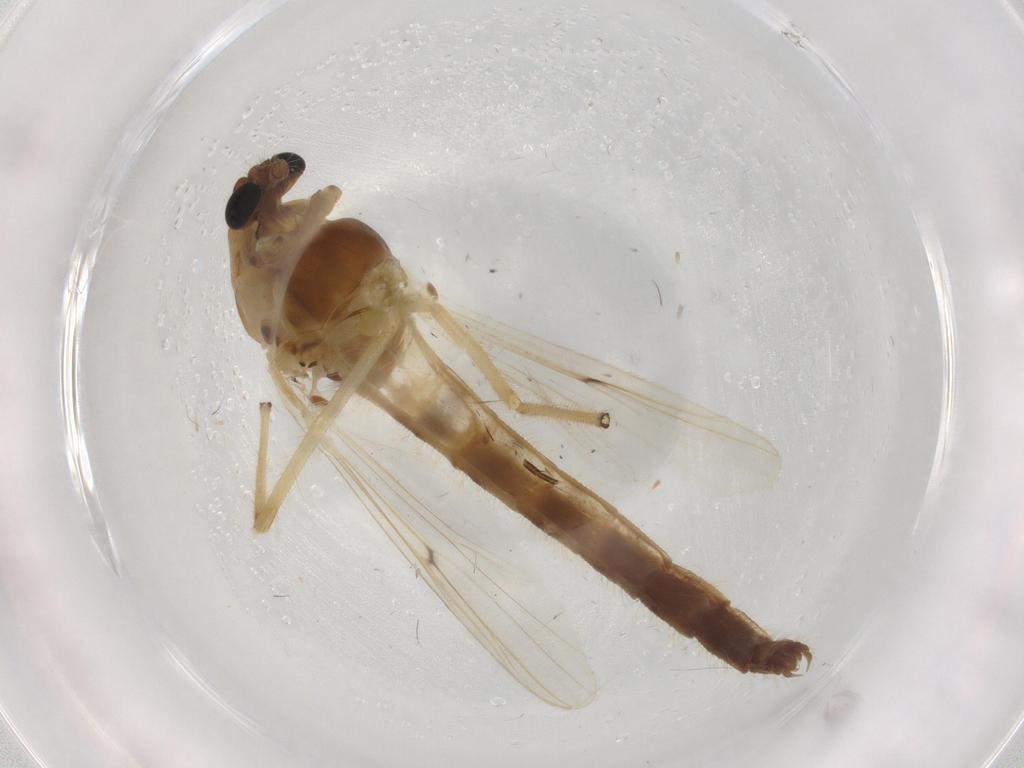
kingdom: Animalia
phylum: Arthropoda
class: Insecta
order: Diptera
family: Chironomidae
